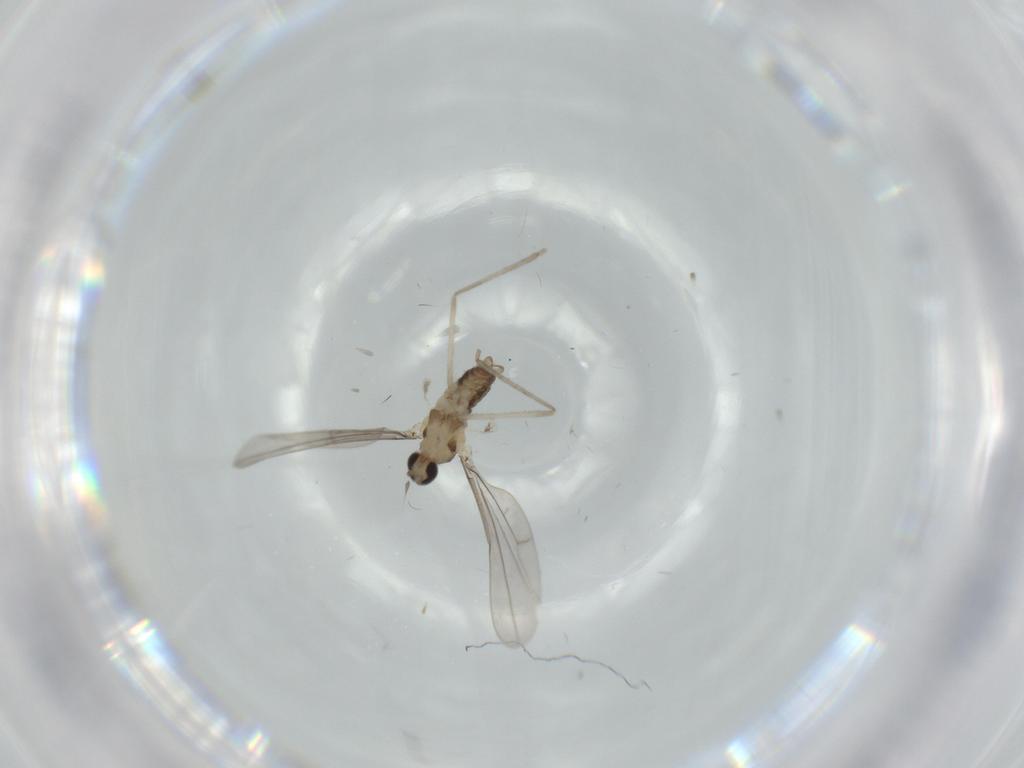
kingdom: Animalia
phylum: Arthropoda
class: Insecta
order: Diptera
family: Cecidomyiidae
